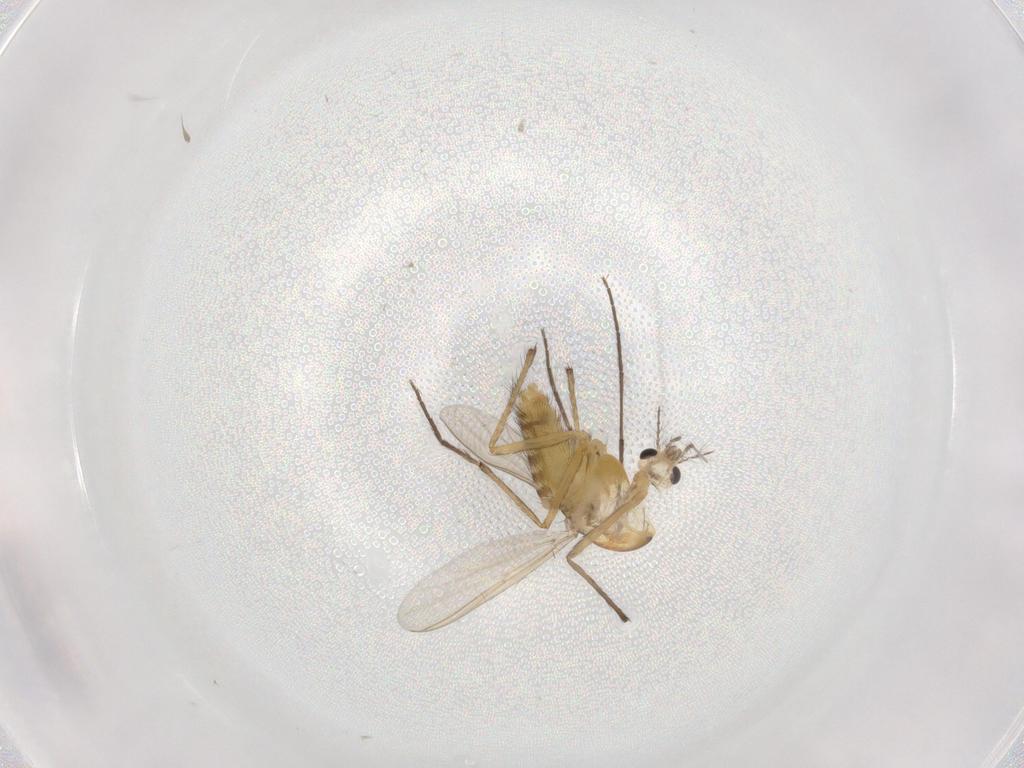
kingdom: Animalia
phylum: Arthropoda
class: Insecta
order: Diptera
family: Chironomidae
